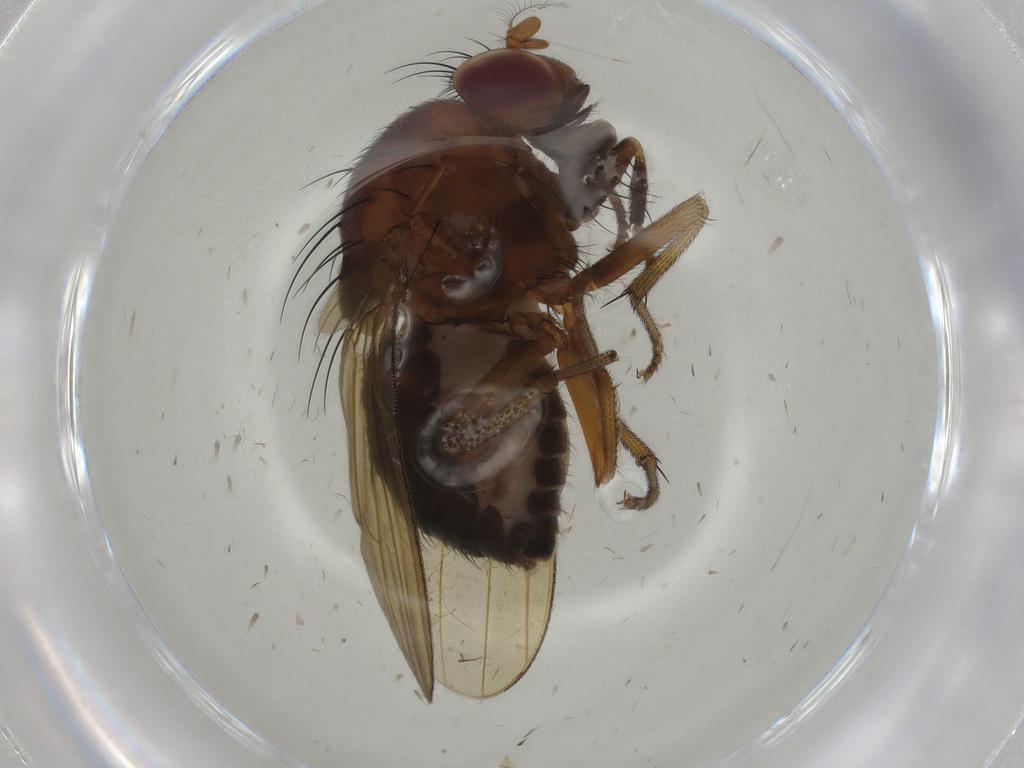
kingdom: Animalia
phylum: Arthropoda
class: Insecta
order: Diptera
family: Cecidomyiidae
